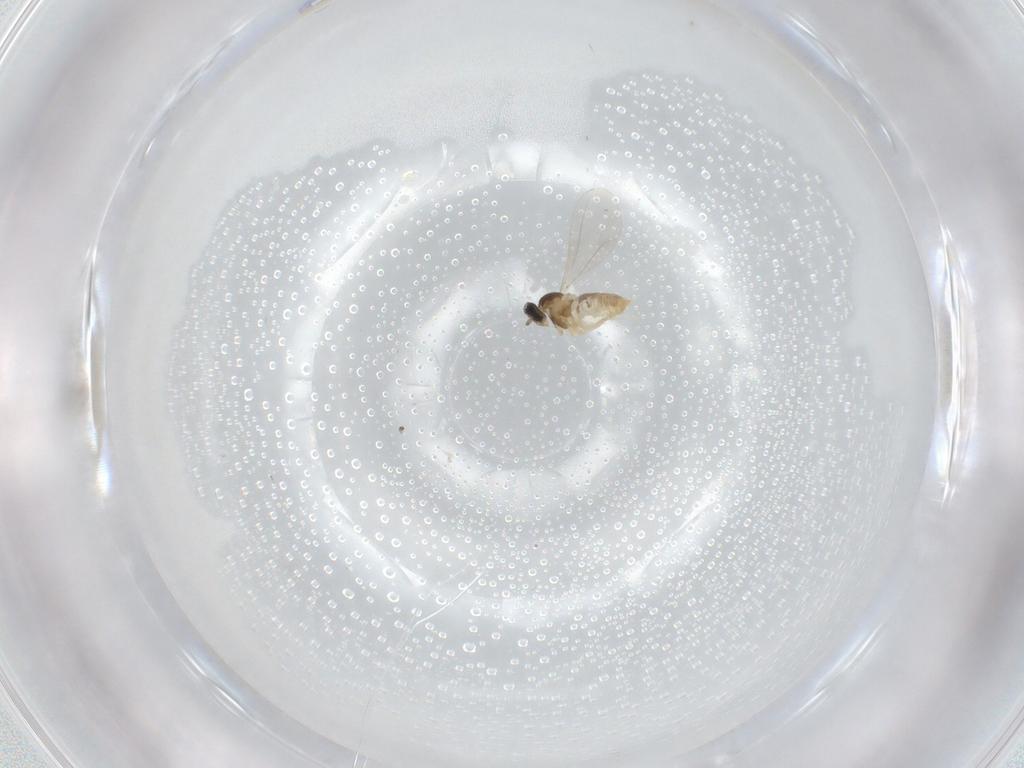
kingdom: Animalia
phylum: Arthropoda
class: Insecta
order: Diptera
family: Cecidomyiidae
